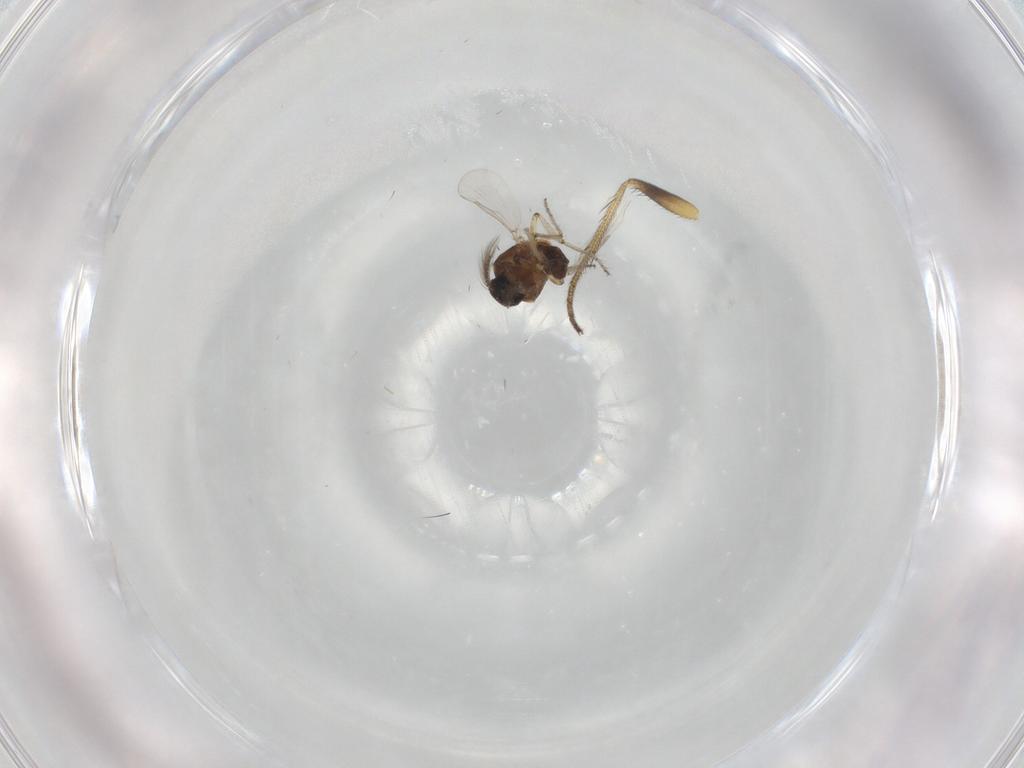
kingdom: Animalia
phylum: Arthropoda
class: Insecta
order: Diptera
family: Ceratopogonidae
